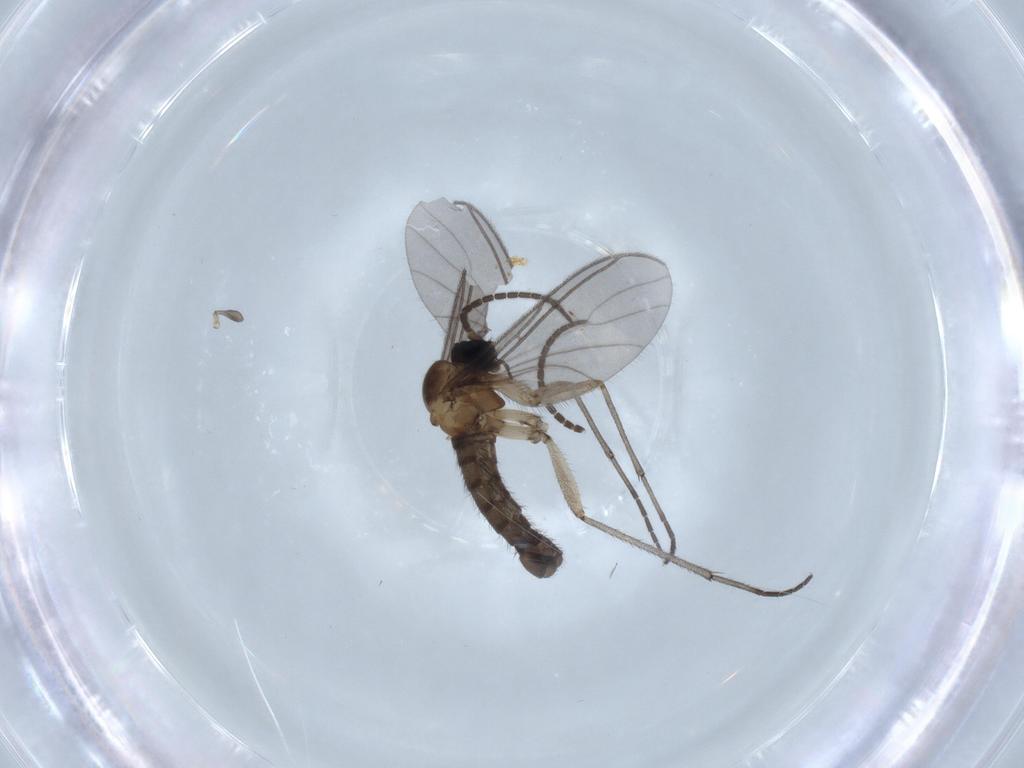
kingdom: Animalia
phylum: Arthropoda
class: Insecta
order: Diptera
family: Sciaridae
